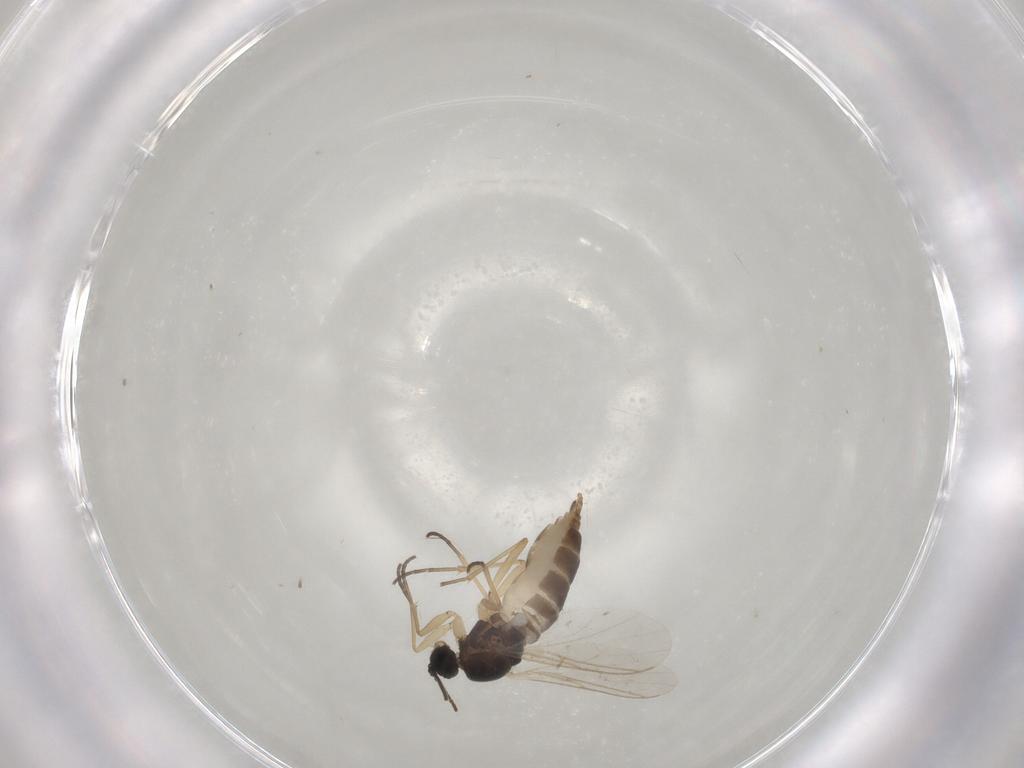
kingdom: Animalia
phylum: Arthropoda
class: Insecta
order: Diptera
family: Sciaridae
